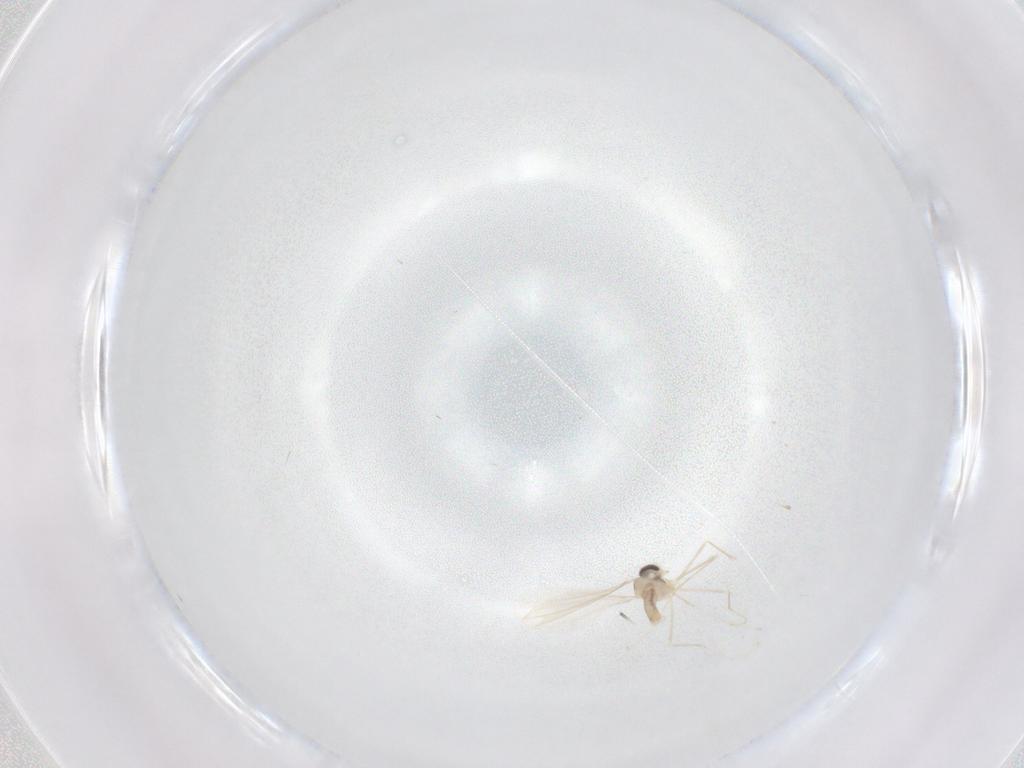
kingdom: Animalia
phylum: Arthropoda
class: Insecta
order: Diptera
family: Cecidomyiidae
